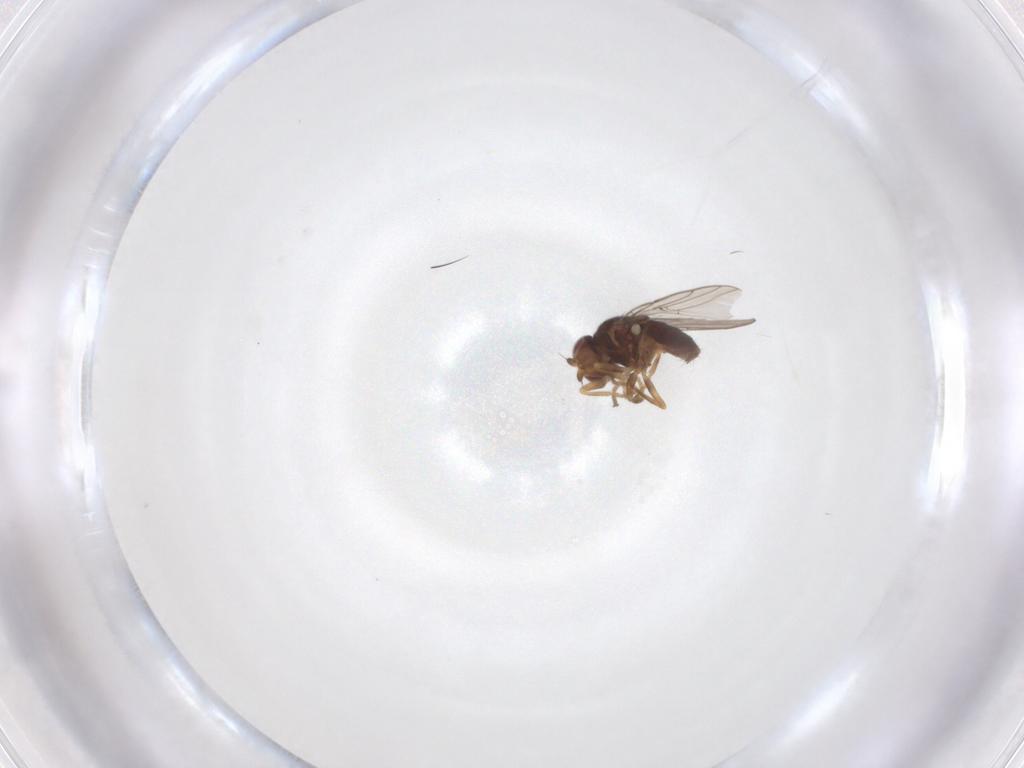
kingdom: Animalia
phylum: Arthropoda
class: Insecta
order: Diptera
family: Chloropidae
